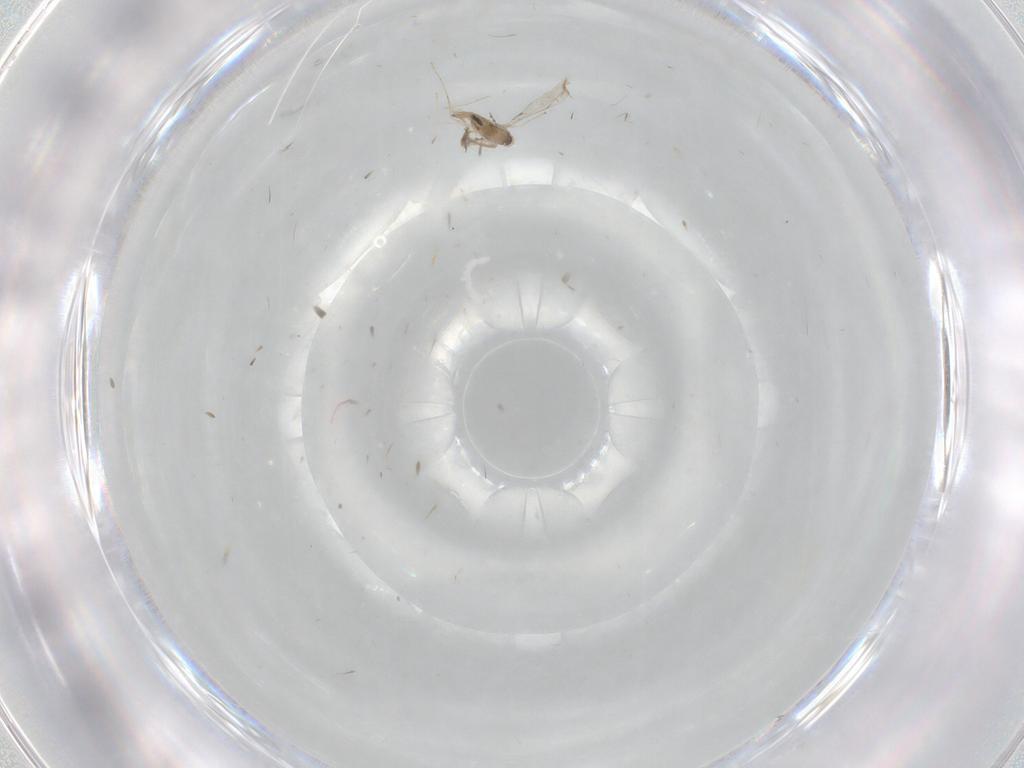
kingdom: Animalia
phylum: Arthropoda
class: Insecta
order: Diptera
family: Cecidomyiidae
